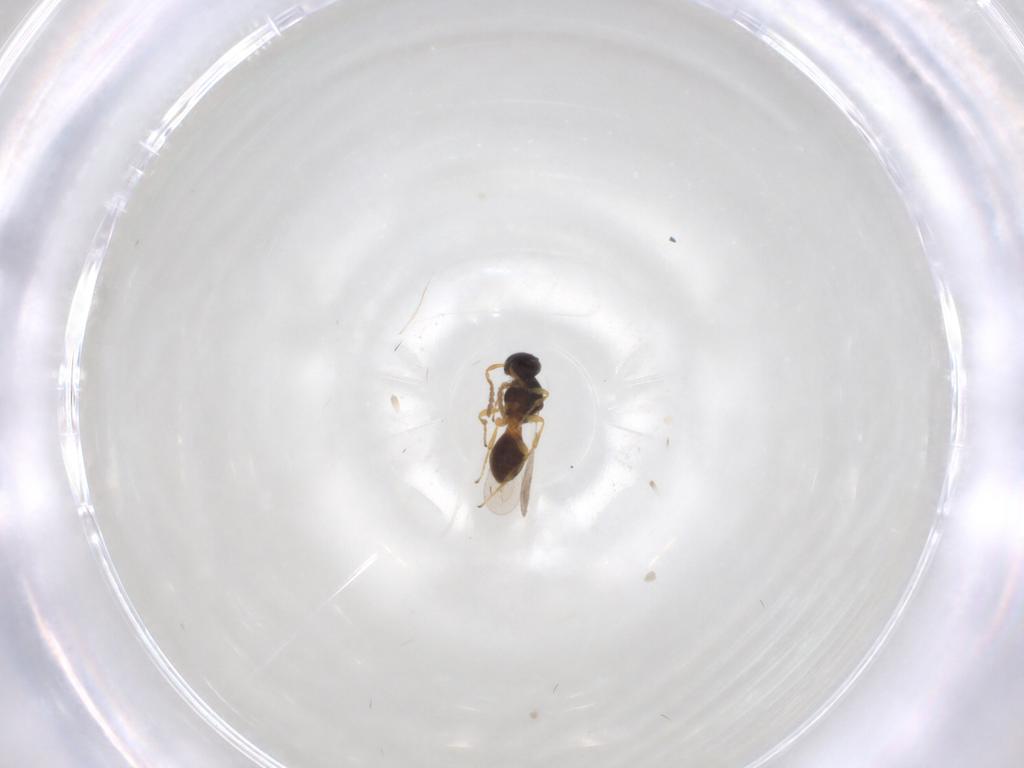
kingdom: Animalia
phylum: Arthropoda
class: Insecta
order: Hymenoptera
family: Platygastridae
